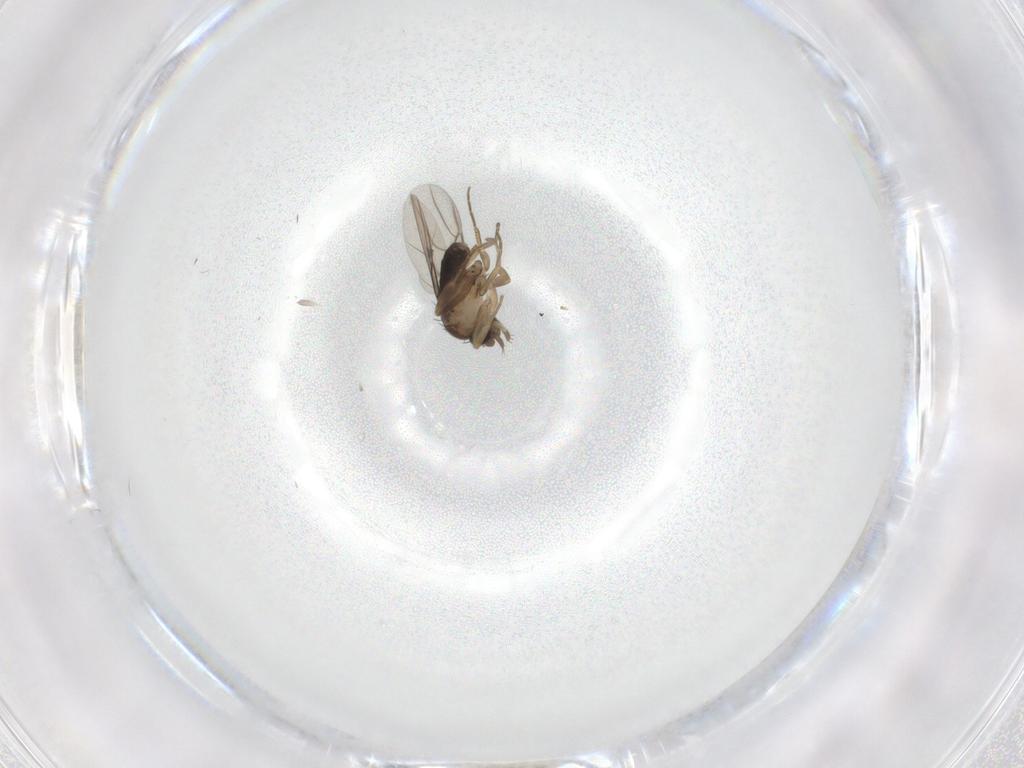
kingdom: Animalia
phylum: Arthropoda
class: Insecta
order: Diptera
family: Phoridae
